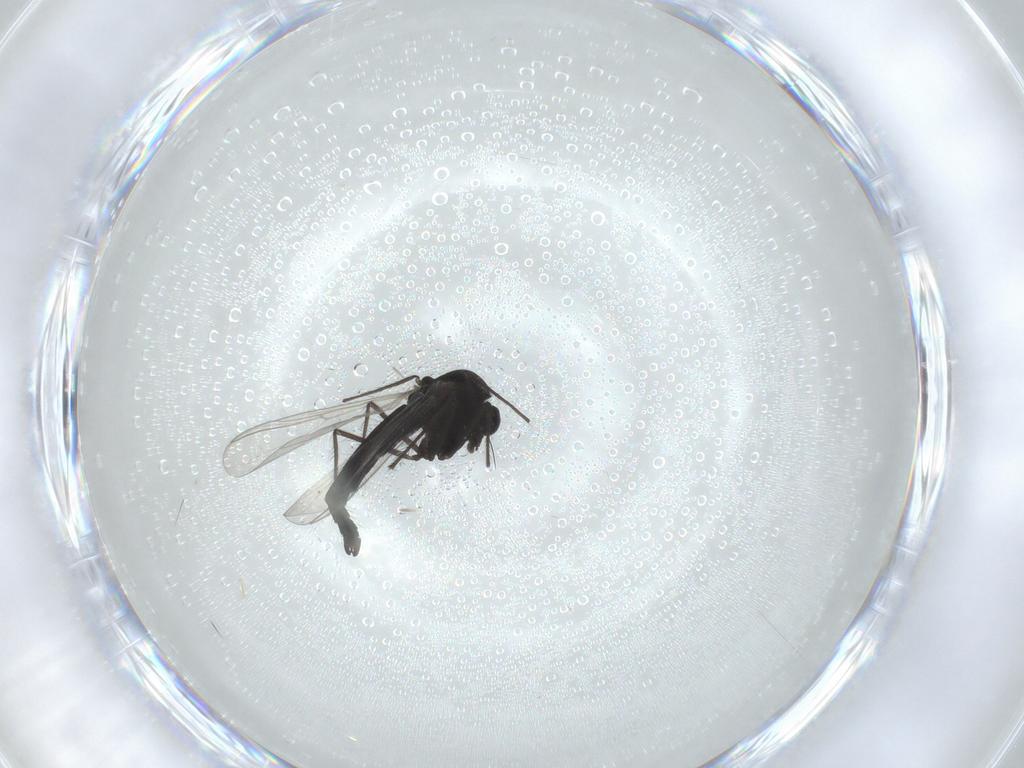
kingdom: Animalia
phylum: Arthropoda
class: Insecta
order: Diptera
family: Chironomidae
